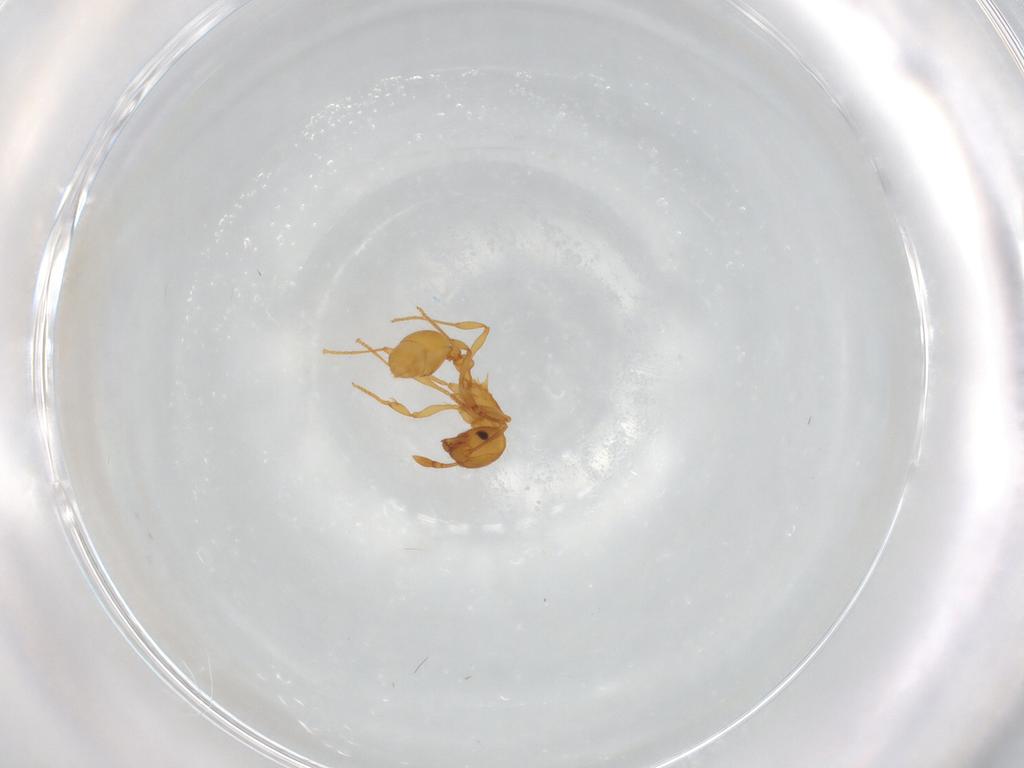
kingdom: Animalia
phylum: Arthropoda
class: Insecta
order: Hymenoptera
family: Formicidae
